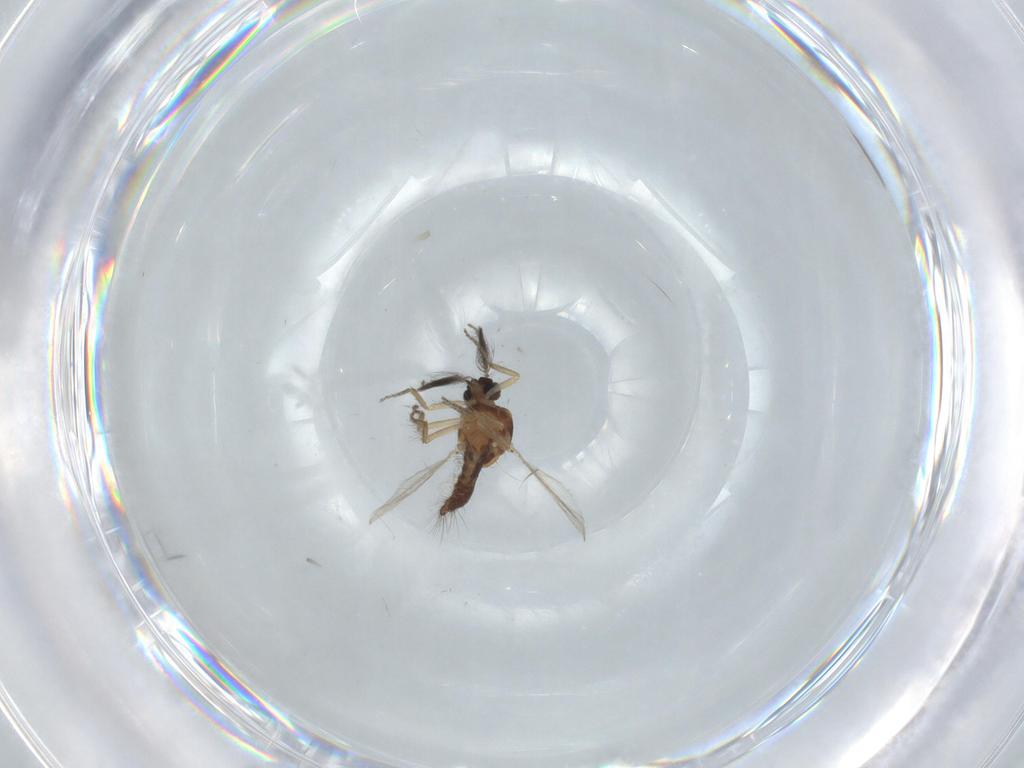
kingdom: Animalia
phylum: Arthropoda
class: Insecta
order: Diptera
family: Ceratopogonidae
